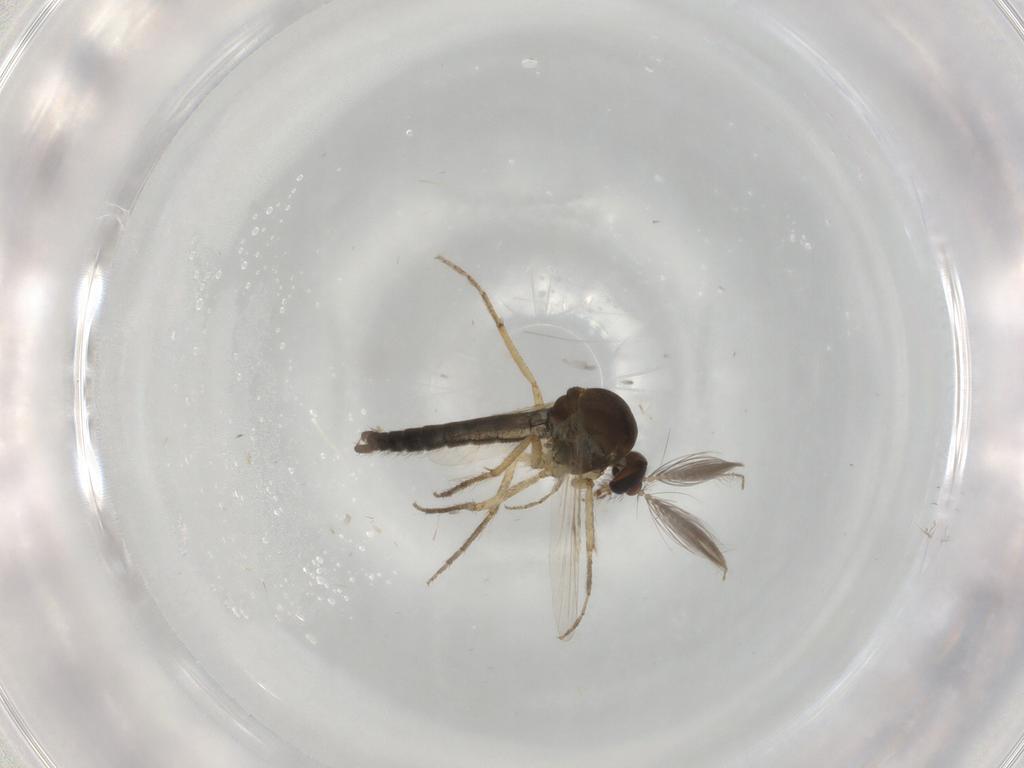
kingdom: Animalia
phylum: Arthropoda
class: Insecta
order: Diptera
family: Ceratopogonidae
